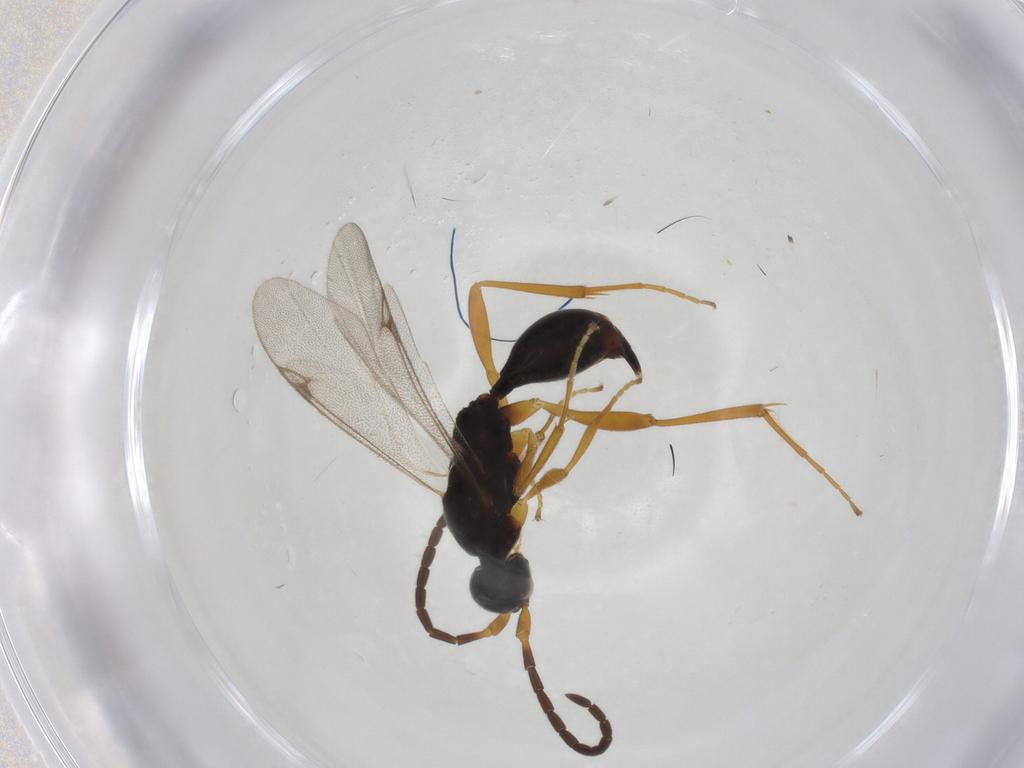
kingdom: Animalia
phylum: Arthropoda
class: Insecta
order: Hymenoptera
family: Proctotrupidae
